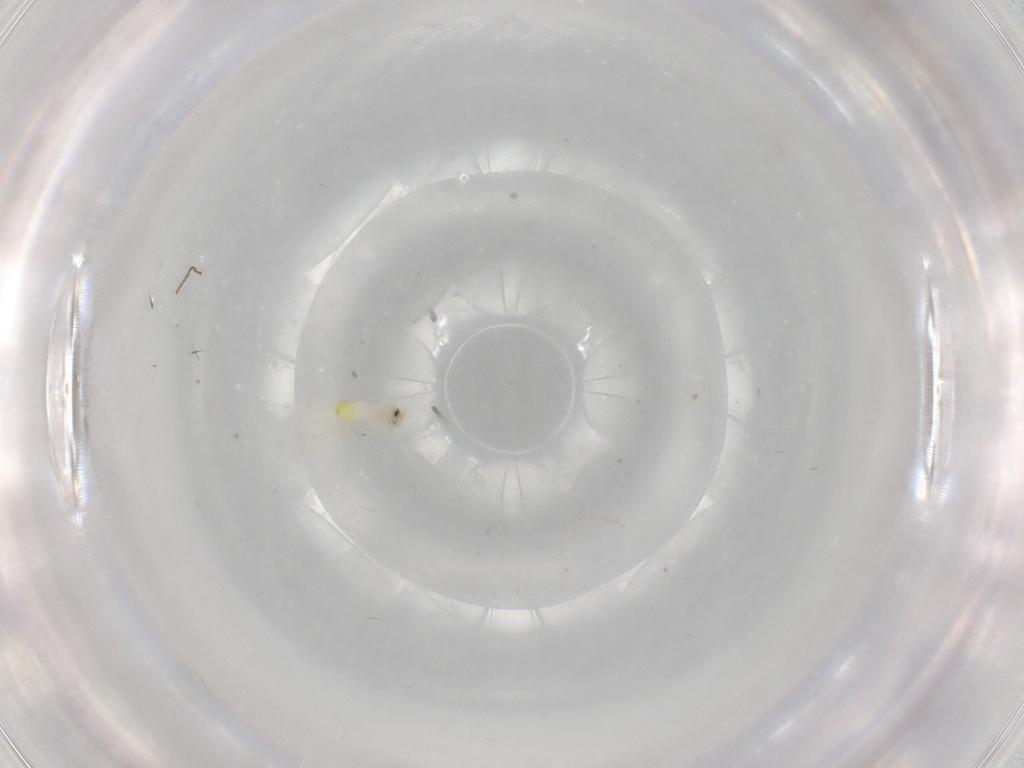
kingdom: Animalia
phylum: Arthropoda
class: Insecta
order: Hemiptera
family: Aleyrodidae
